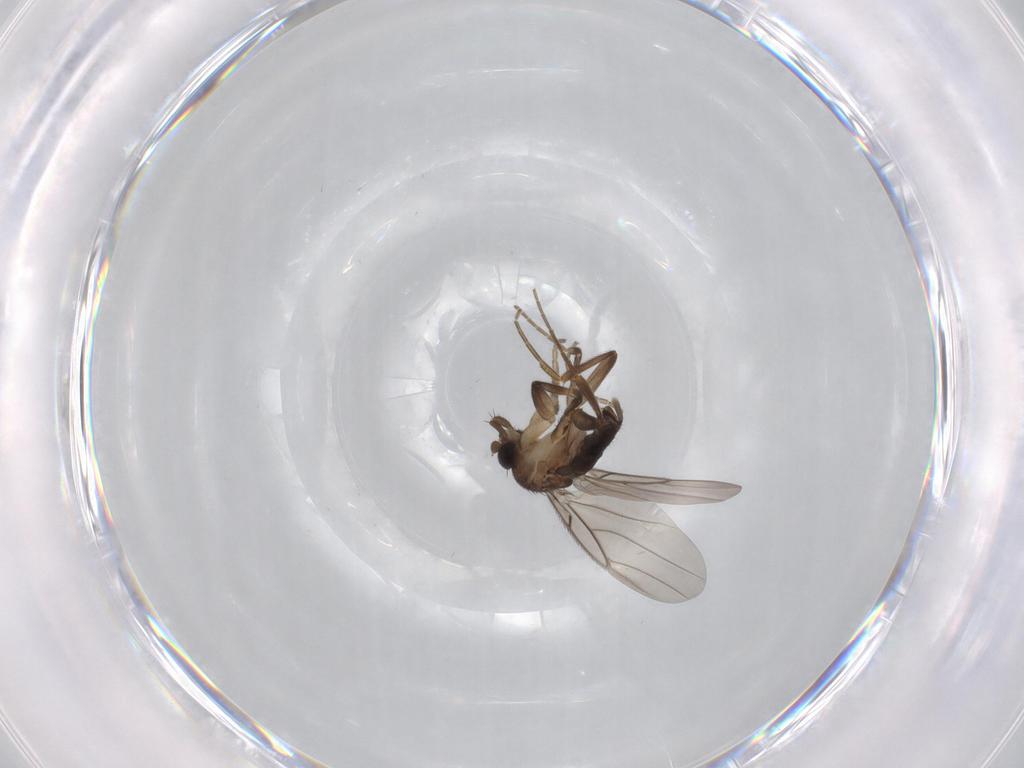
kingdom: Animalia
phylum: Arthropoda
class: Insecta
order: Diptera
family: Phoridae
